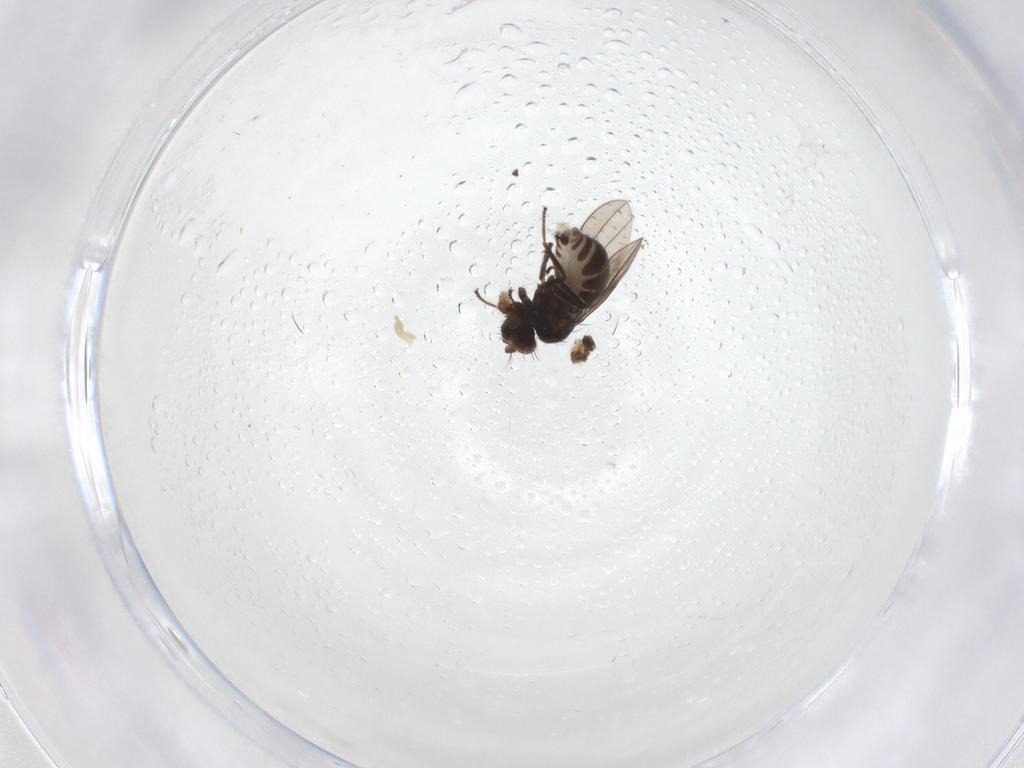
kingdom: Animalia
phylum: Arthropoda
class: Insecta
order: Diptera
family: Ephydridae
